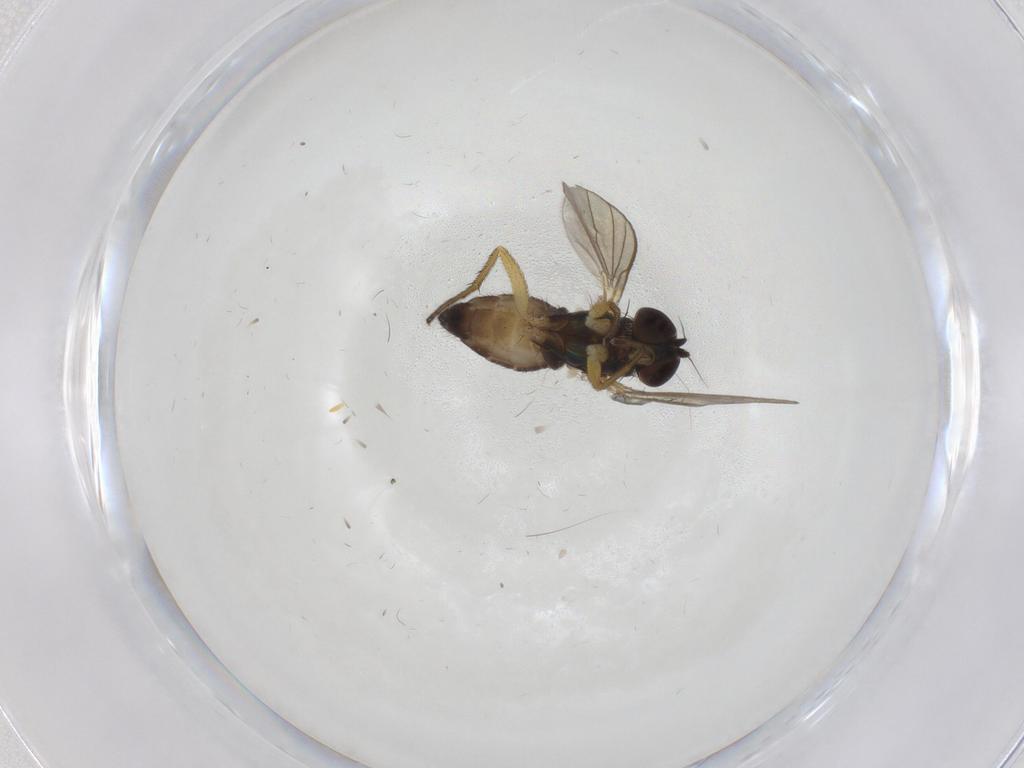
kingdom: Animalia
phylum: Arthropoda
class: Insecta
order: Diptera
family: Dolichopodidae
